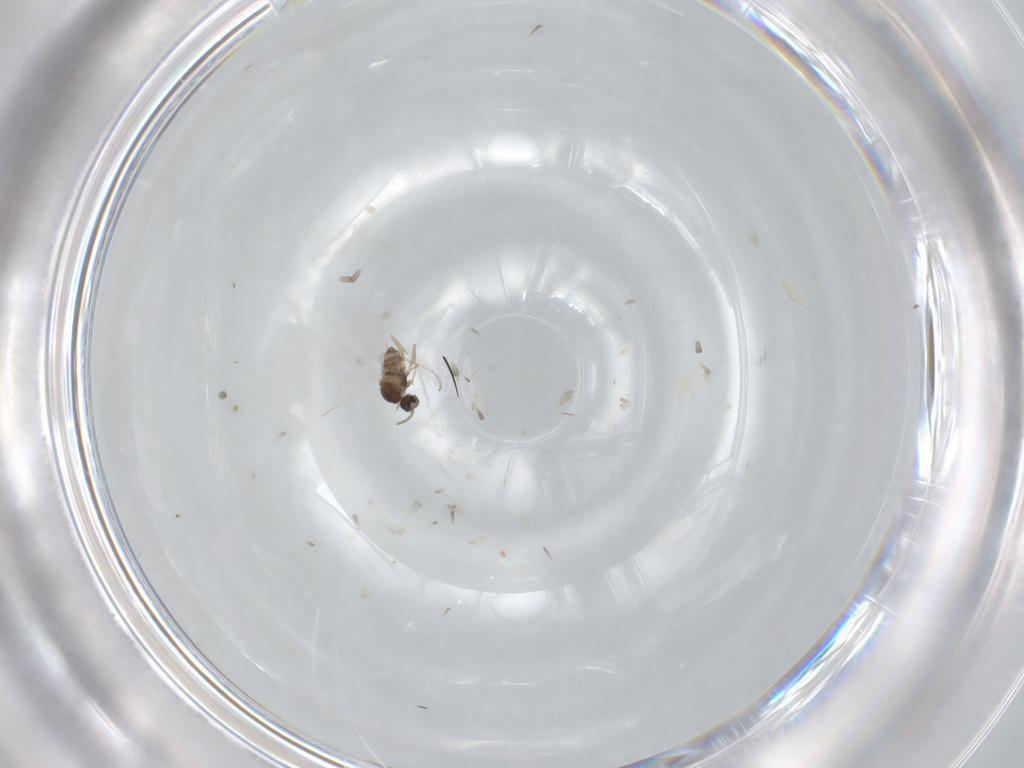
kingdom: Animalia
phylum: Arthropoda
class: Insecta
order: Diptera
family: Cecidomyiidae
